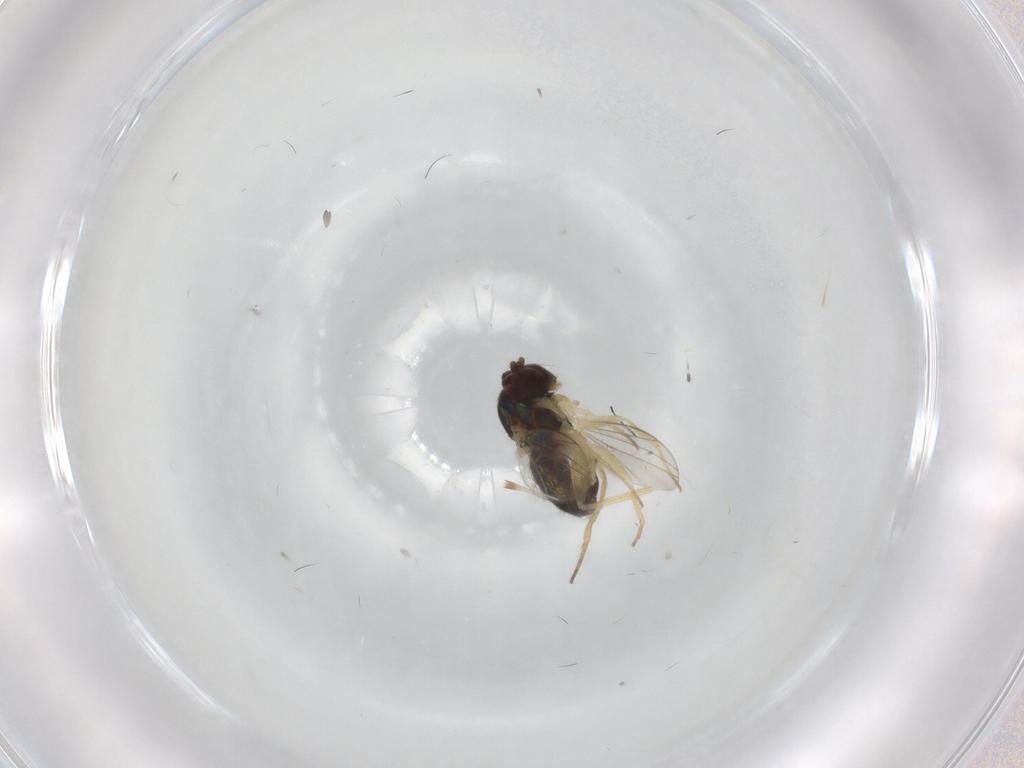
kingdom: Animalia
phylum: Arthropoda
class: Insecta
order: Diptera
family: Dolichopodidae
